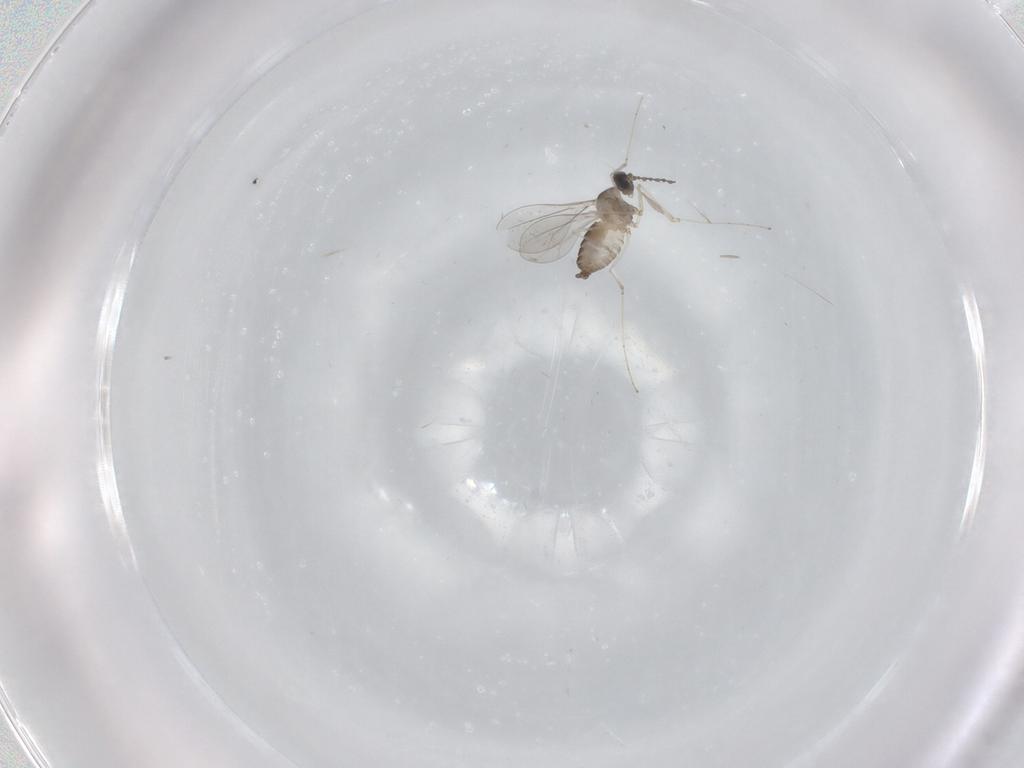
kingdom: Animalia
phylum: Arthropoda
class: Insecta
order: Diptera
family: Cecidomyiidae
